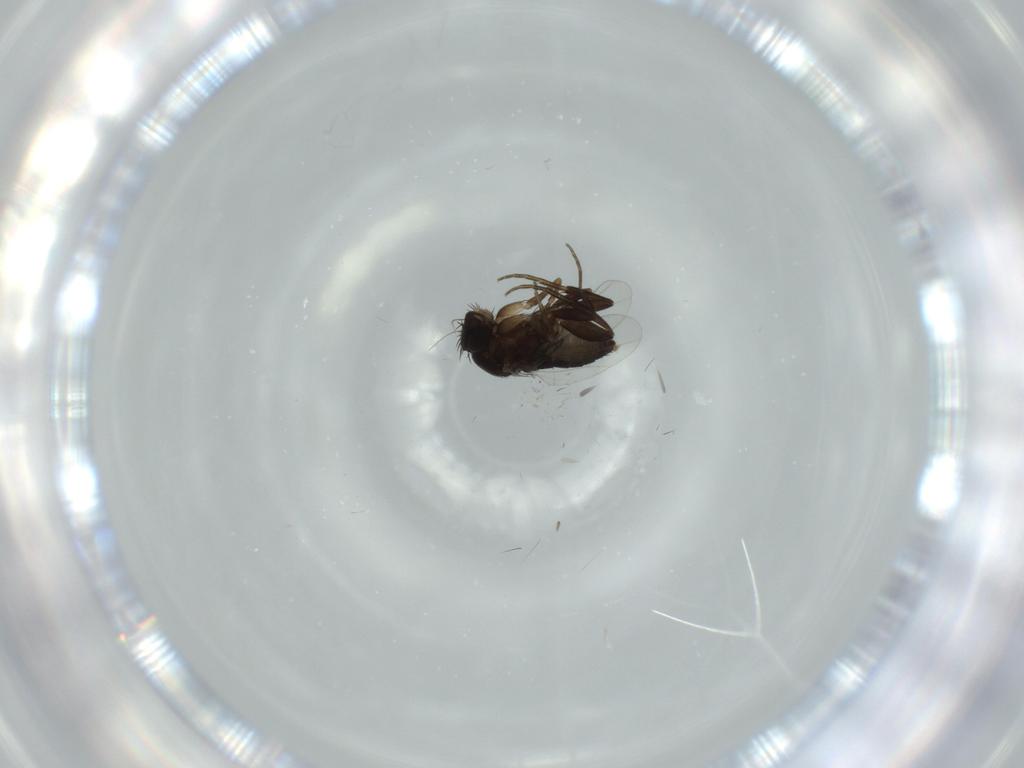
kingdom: Animalia
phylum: Arthropoda
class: Insecta
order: Diptera
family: Phoridae
